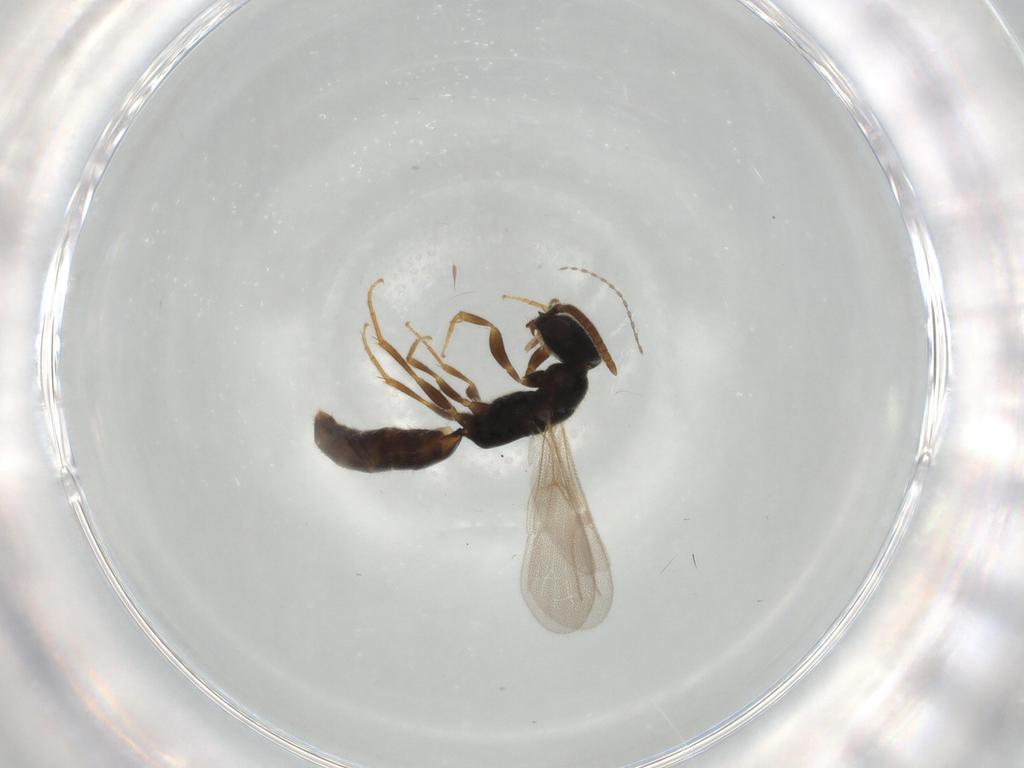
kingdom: Animalia
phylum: Arthropoda
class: Insecta
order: Hymenoptera
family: Bethylidae
